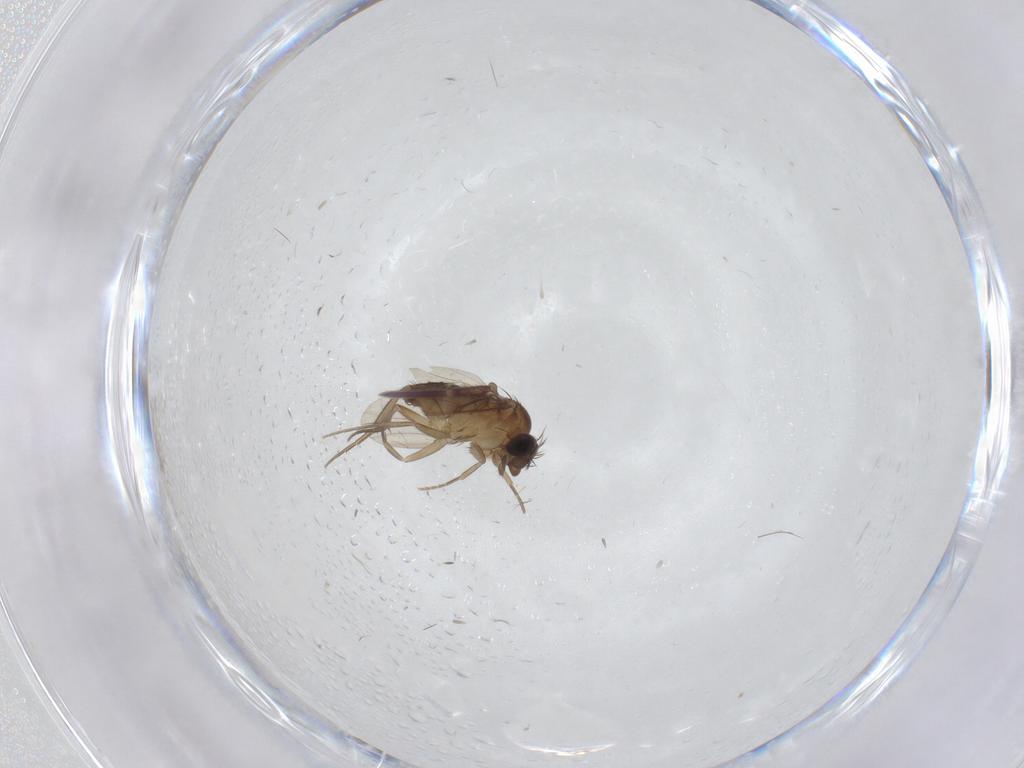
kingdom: Animalia
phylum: Arthropoda
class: Insecta
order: Diptera
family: Phoridae
